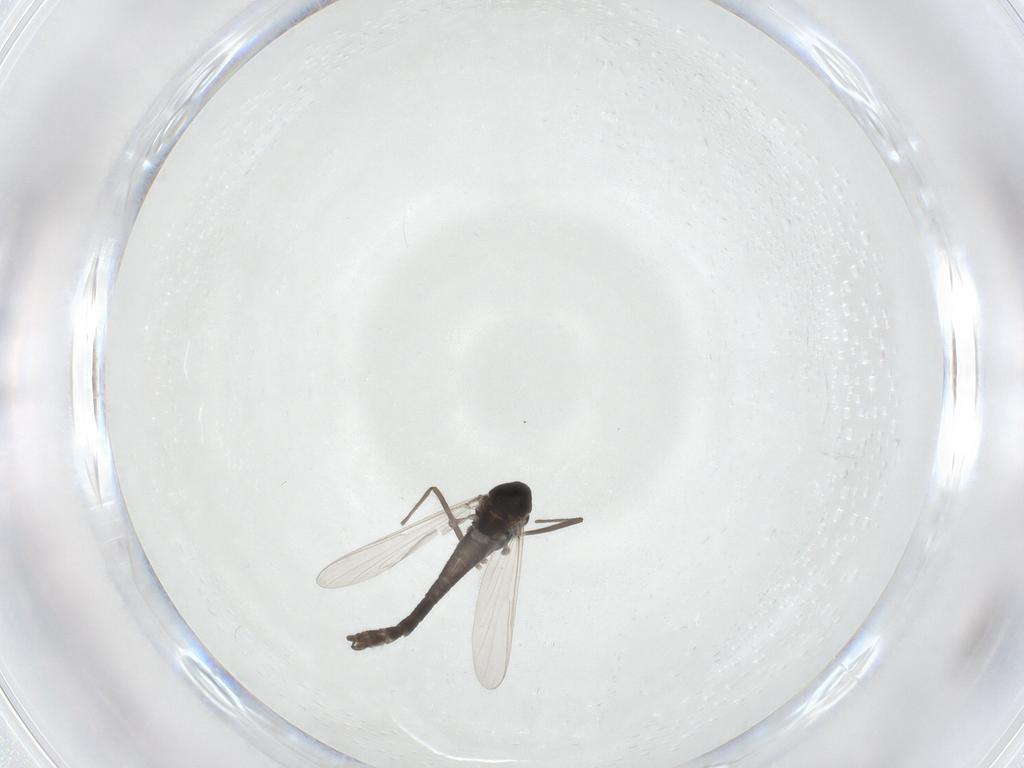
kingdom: Animalia
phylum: Arthropoda
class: Insecta
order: Diptera
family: Chironomidae
